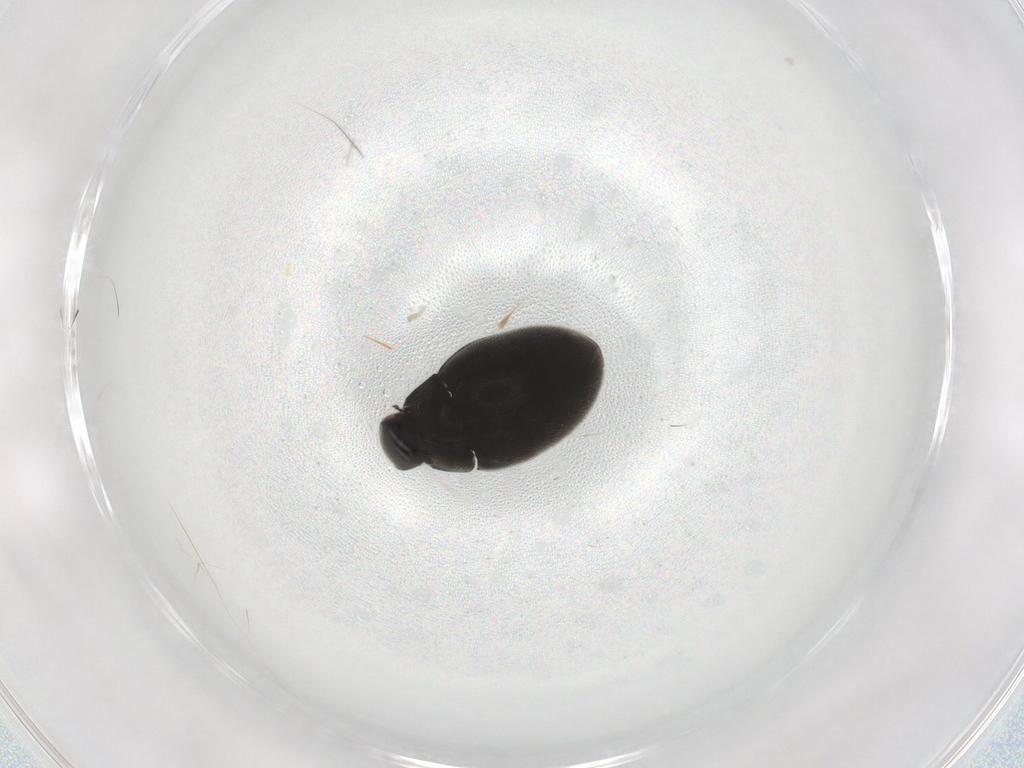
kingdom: Animalia
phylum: Arthropoda
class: Insecta
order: Coleoptera
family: Limnichidae
